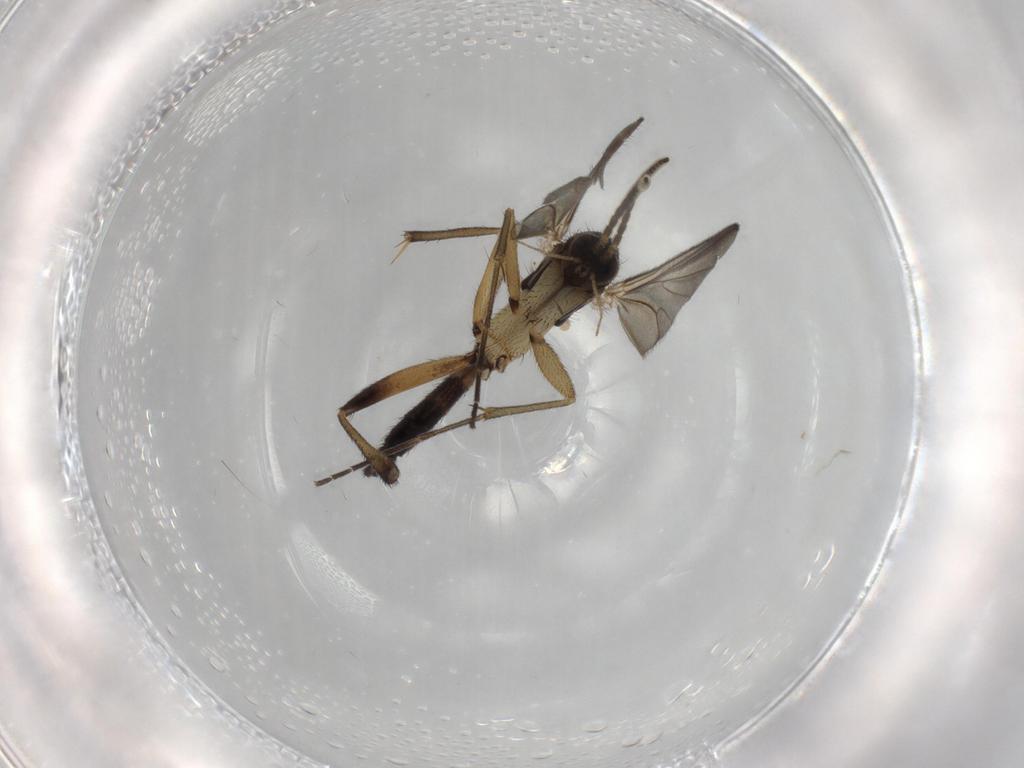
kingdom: Animalia
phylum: Arthropoda
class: Insecta
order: Diptera
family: Mycetophilidae
